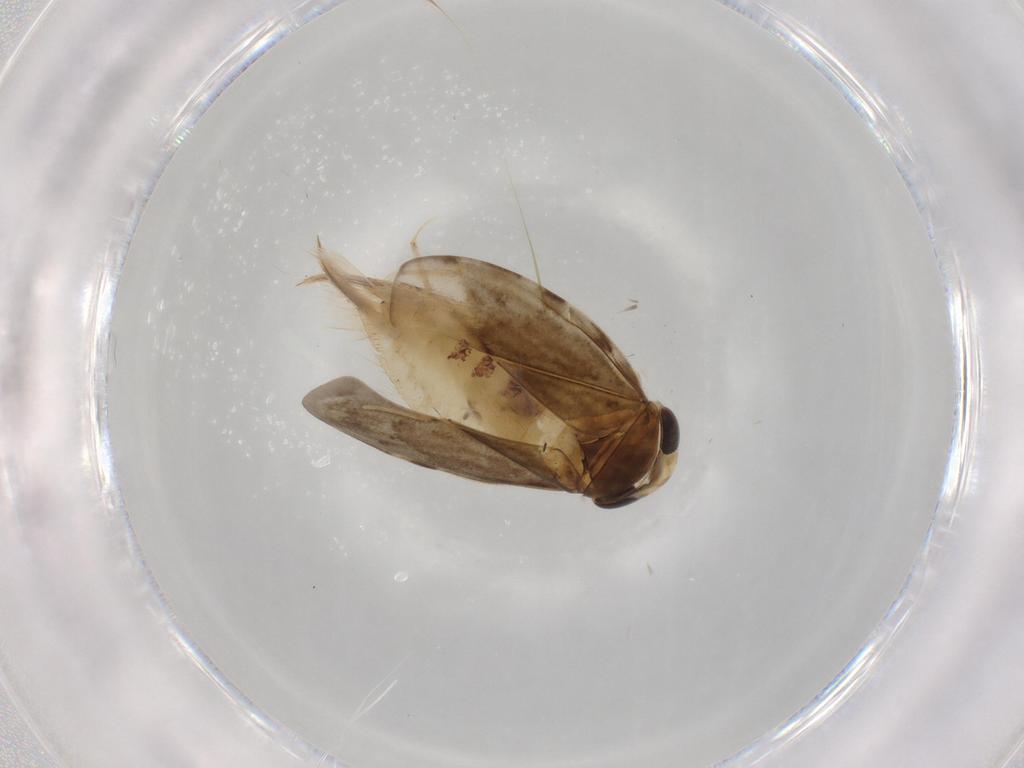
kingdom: Animalia
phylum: Arthropoda
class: Insecta
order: Hemiptera
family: Corixidae
